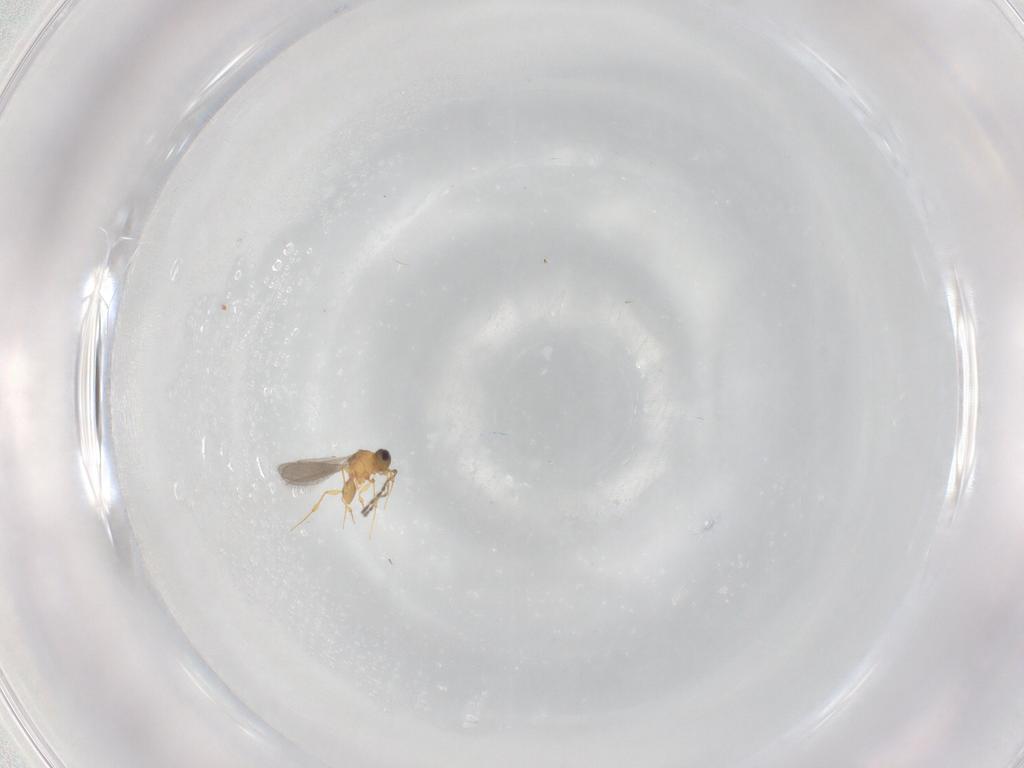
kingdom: Animalia
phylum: Arthropoda
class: Insecta
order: Hymenoptera
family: Platygastridae
